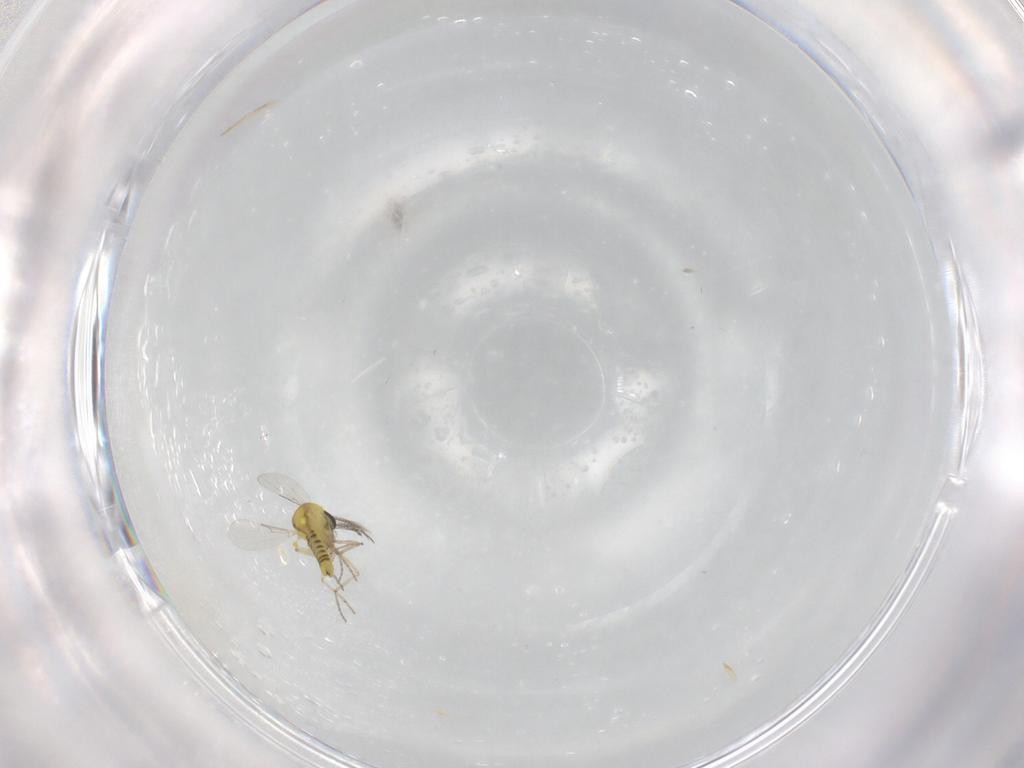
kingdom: Animalia
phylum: Arthropoda
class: Insecta
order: Diptera
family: Ceratopogonidae
